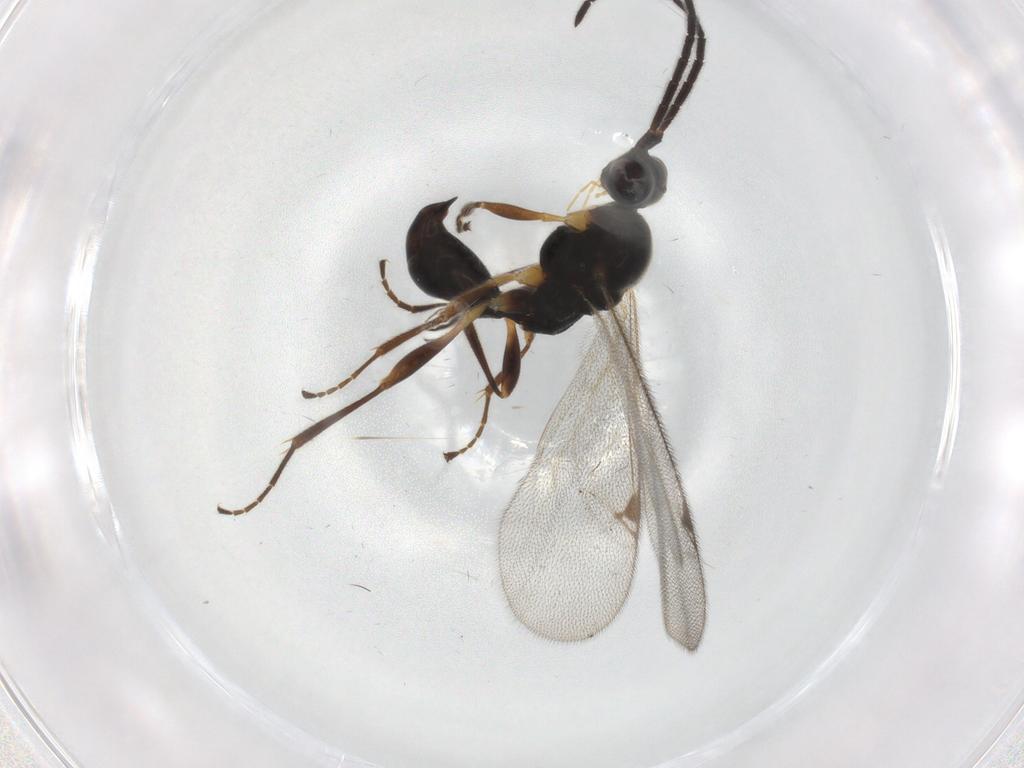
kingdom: Animalia
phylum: Arthropoda
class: Insecta
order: Hymenoptera
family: Proctotrupidae
